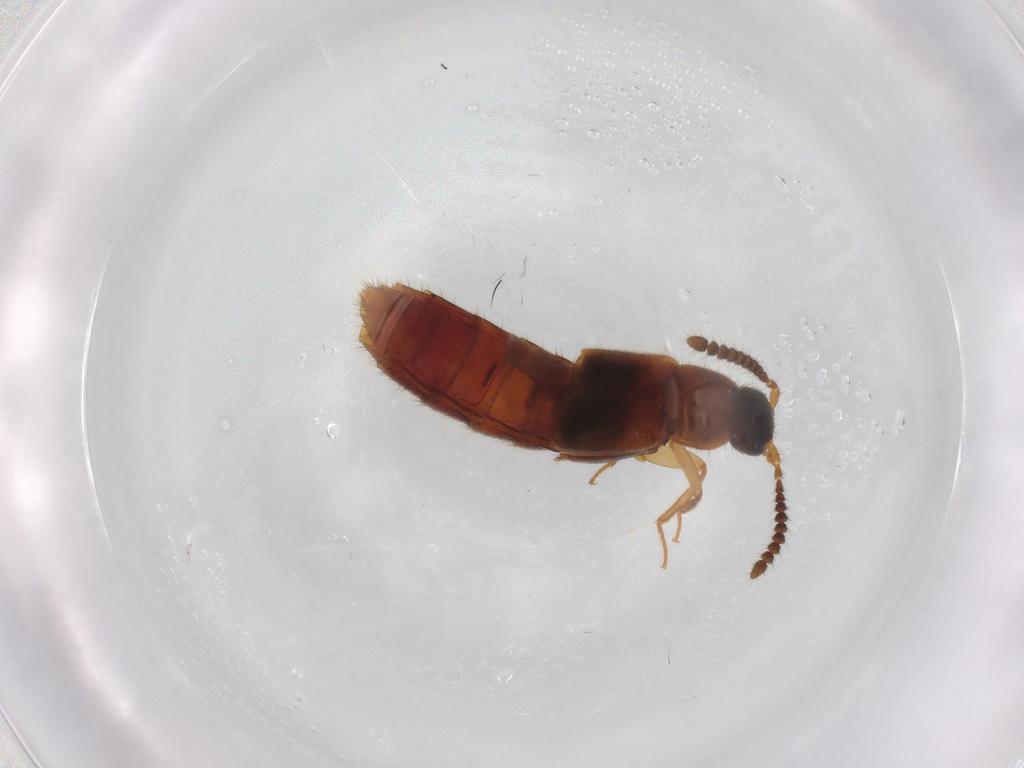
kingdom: Animalia
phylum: Arthropoda
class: Insecta
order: Coleoptera
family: Staphylinidae
